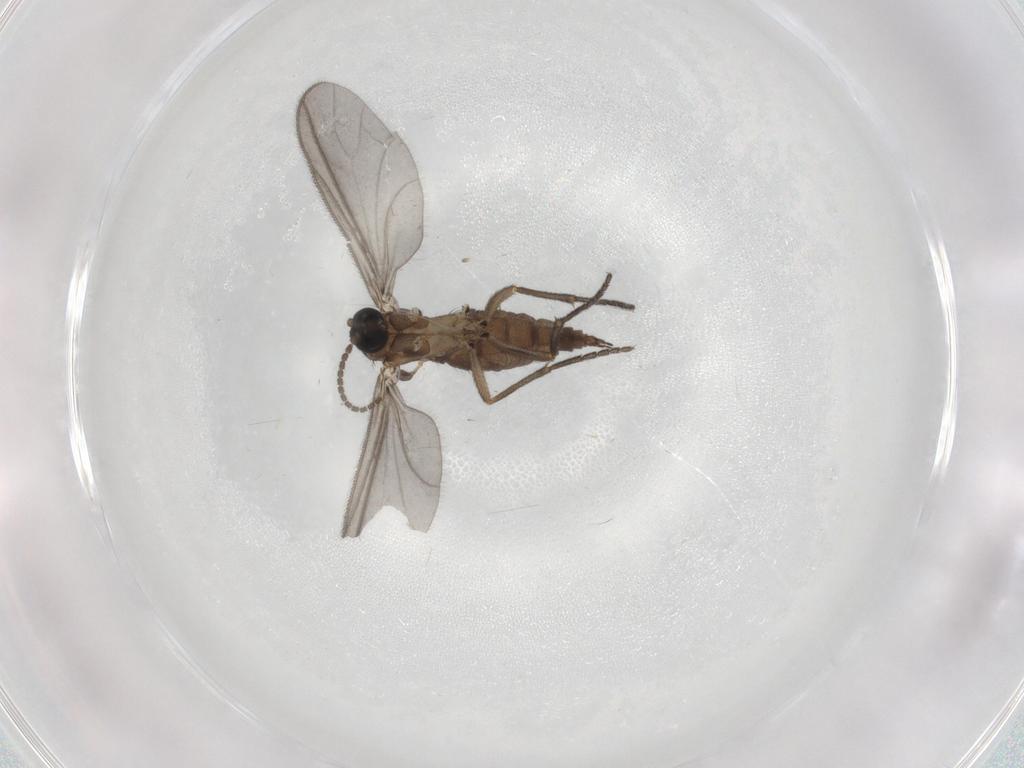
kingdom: Animalia
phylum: Arthropoda
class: Insecta
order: Diptera
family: Sciaridae
